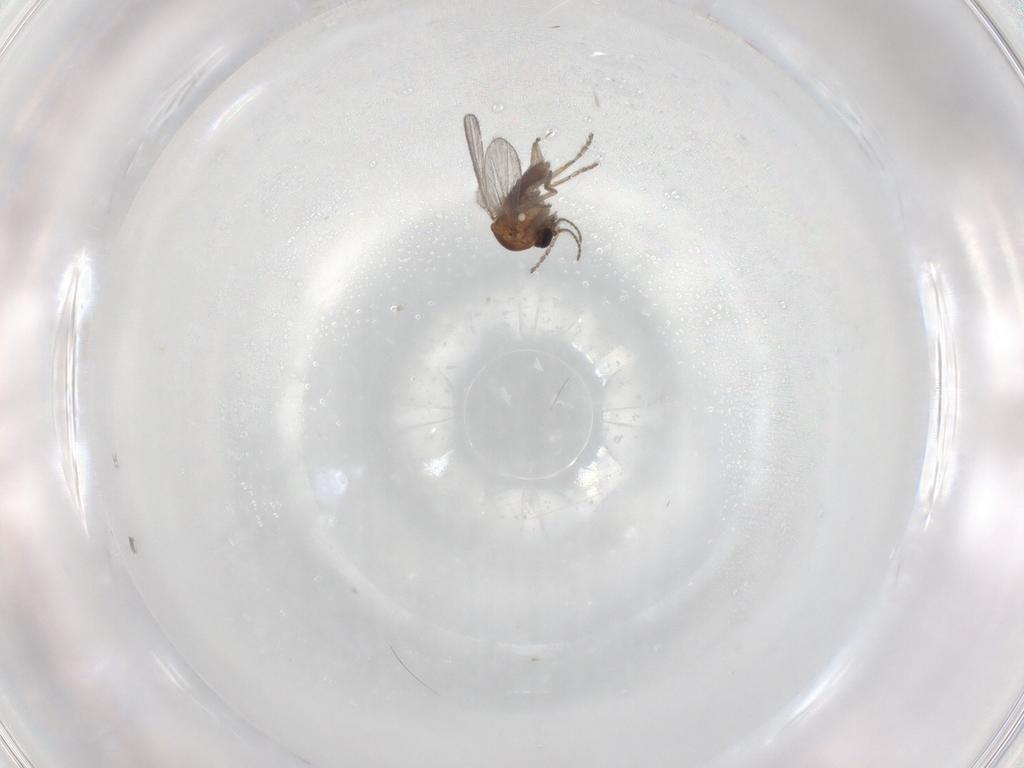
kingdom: Animalia
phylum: Arthropoda
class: Insecta
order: Diptera
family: Ceratopogonidae
